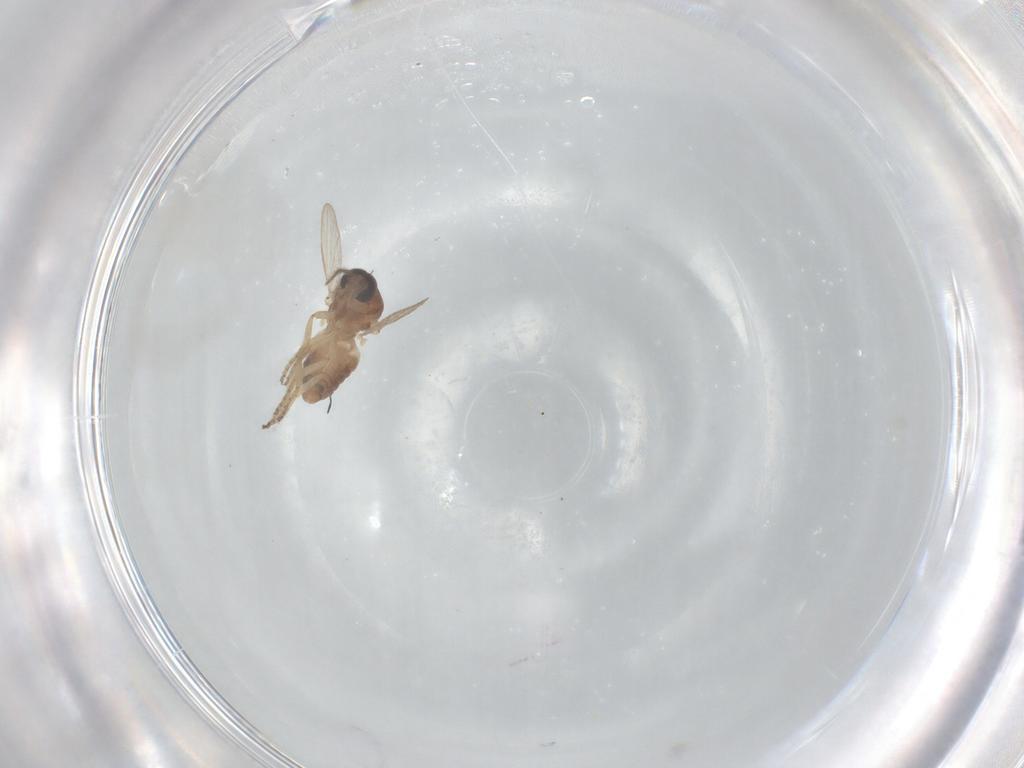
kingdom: Animalia
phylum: Arthropoda
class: Insecta
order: Diptera
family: Ceratopogonidae
